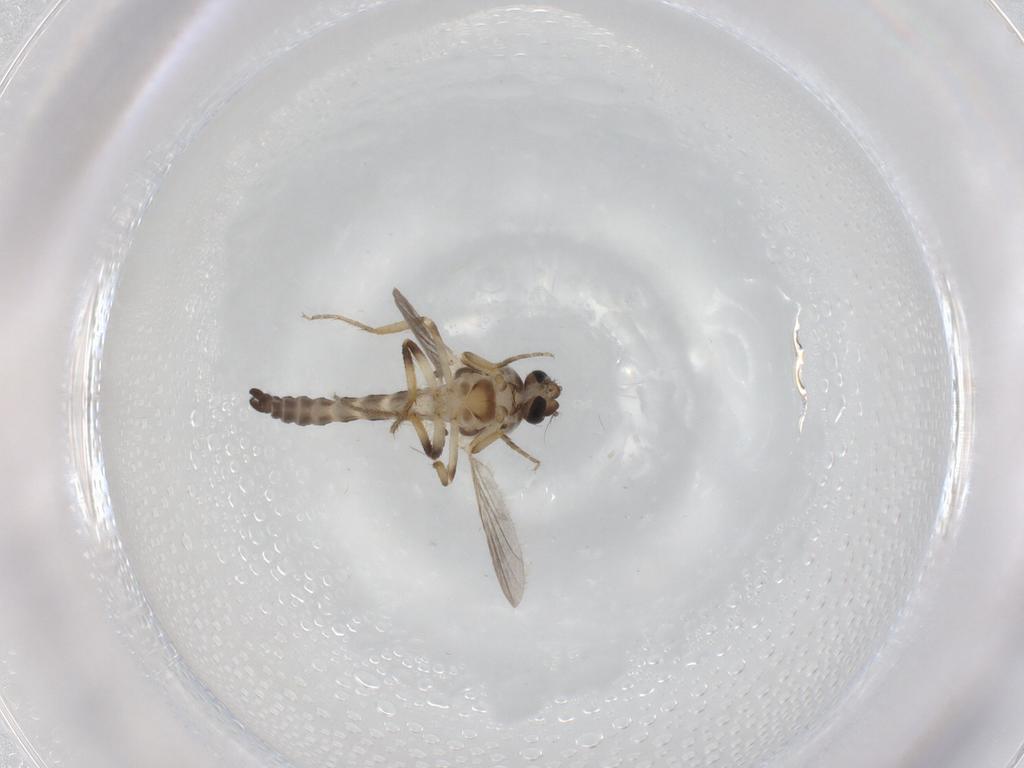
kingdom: Animalia
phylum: Arthropoda
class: Insecta
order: Diptera
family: Ceratopogonidae
